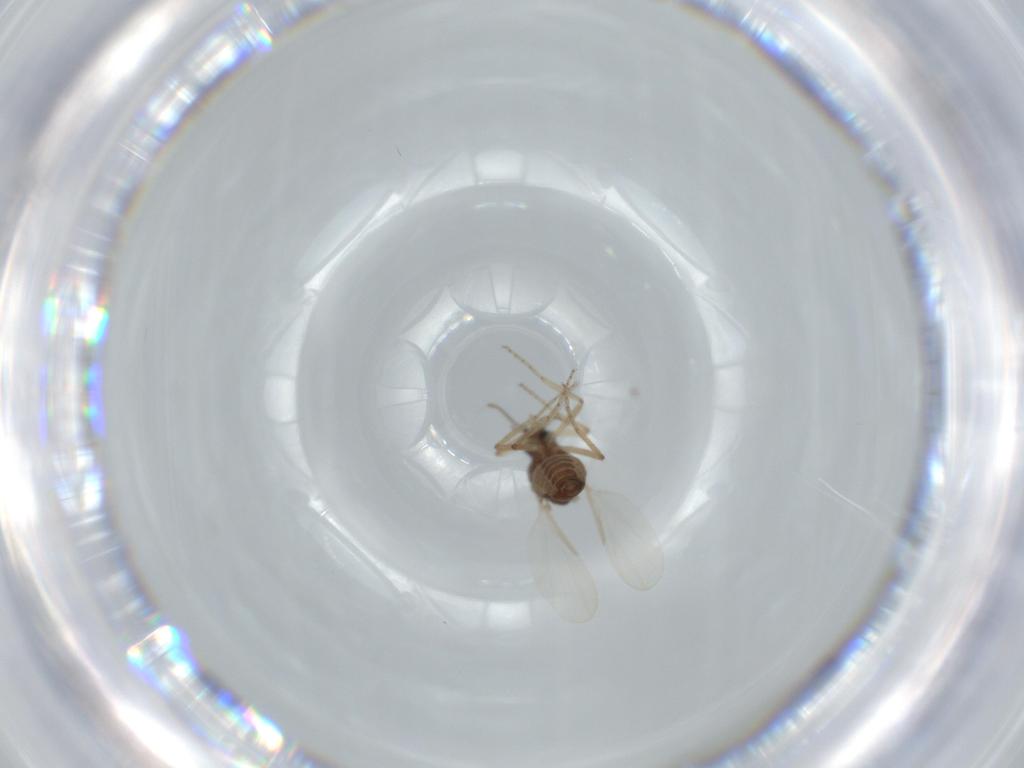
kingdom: Animalia
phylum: Arthropoda
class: Insecta
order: Diptera
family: Ceratopogonidae
